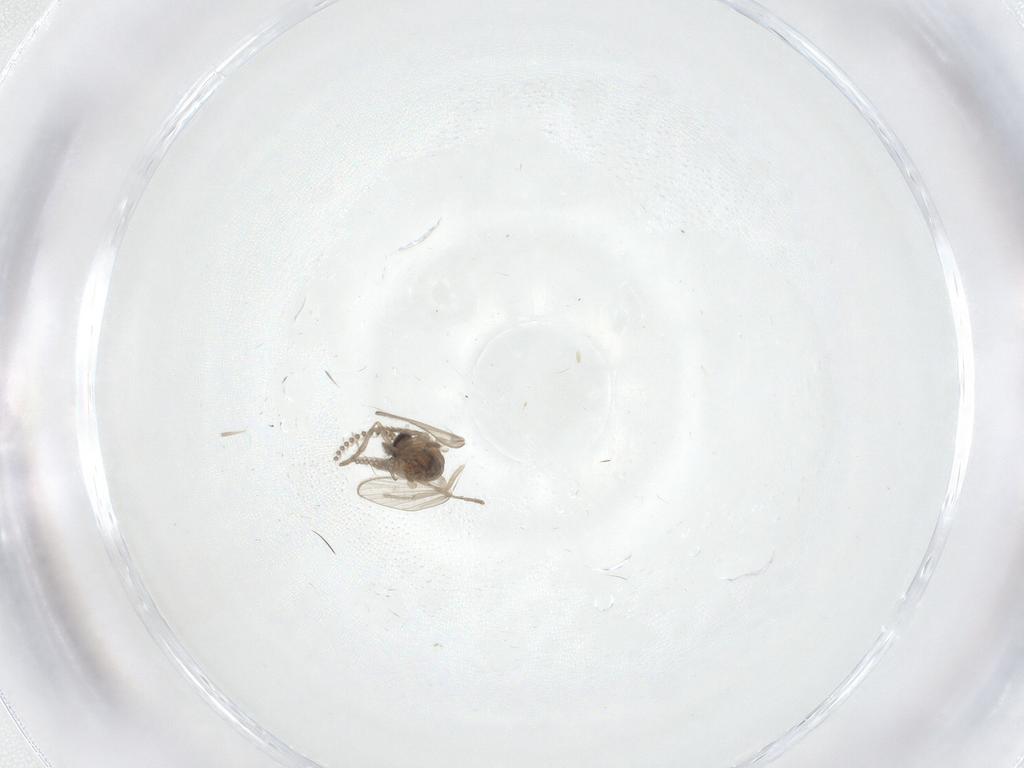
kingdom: Animalia
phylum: Arthropoda
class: Insecta
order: Diptera
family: Psychodidae
